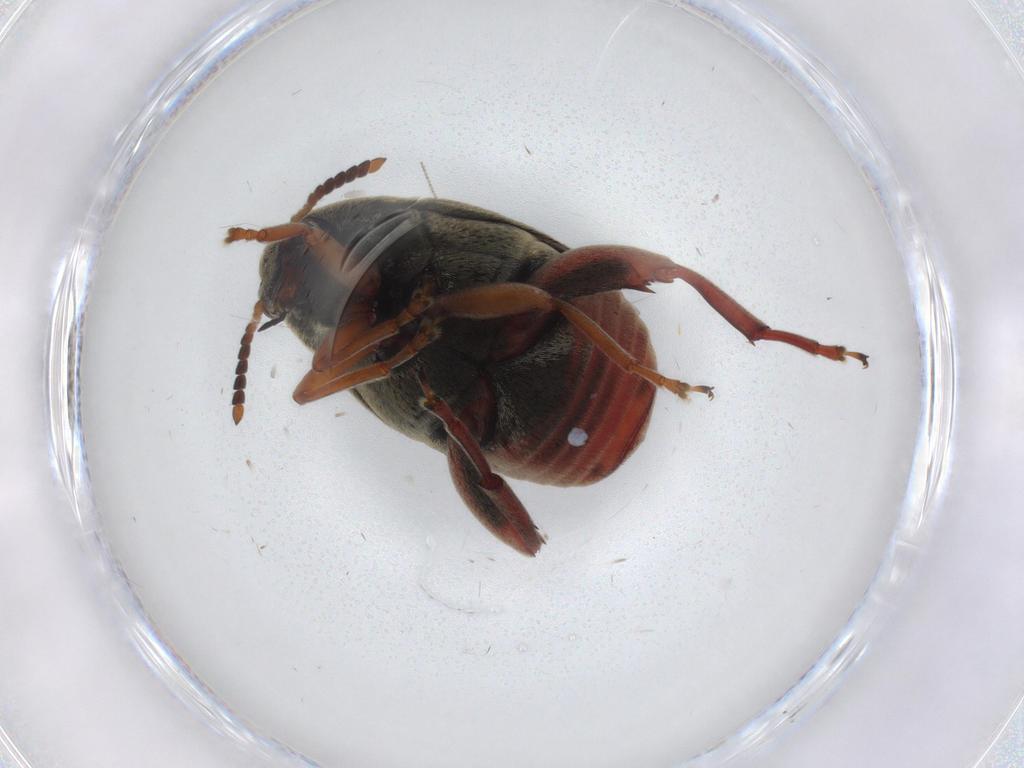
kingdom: Animalia
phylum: Arthropoda
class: Insecta
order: Coleoptera
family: Chrysomelidae
